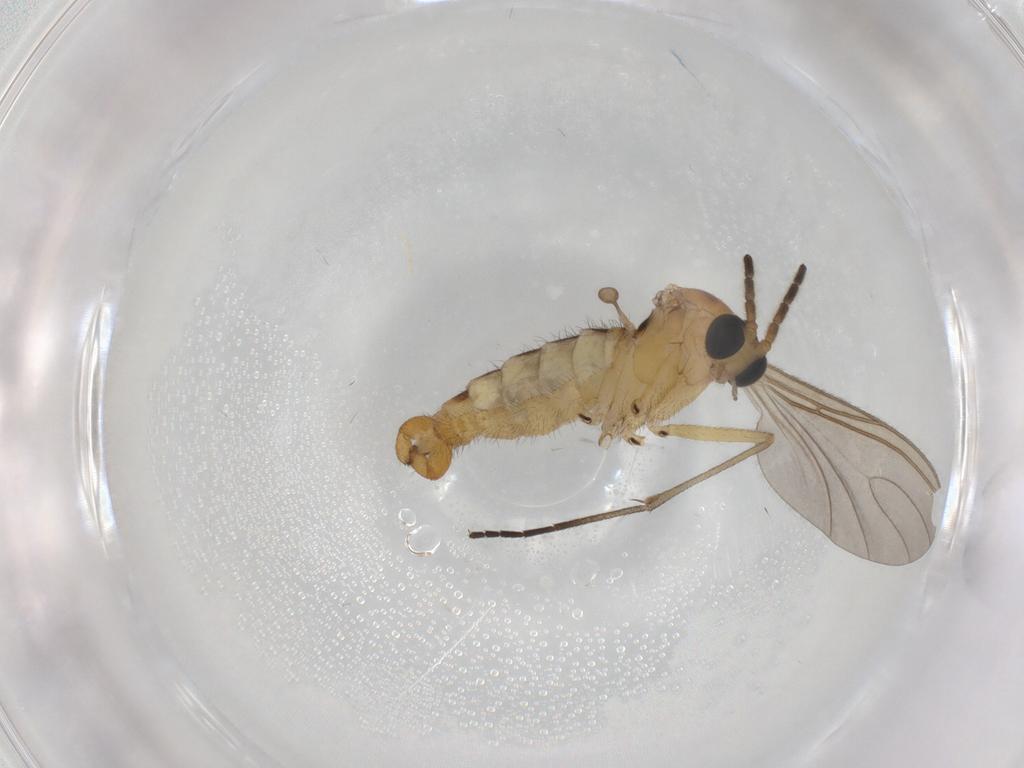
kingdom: Animalia
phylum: Arthropoda
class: Insecta
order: Diptera
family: Sciaridae
